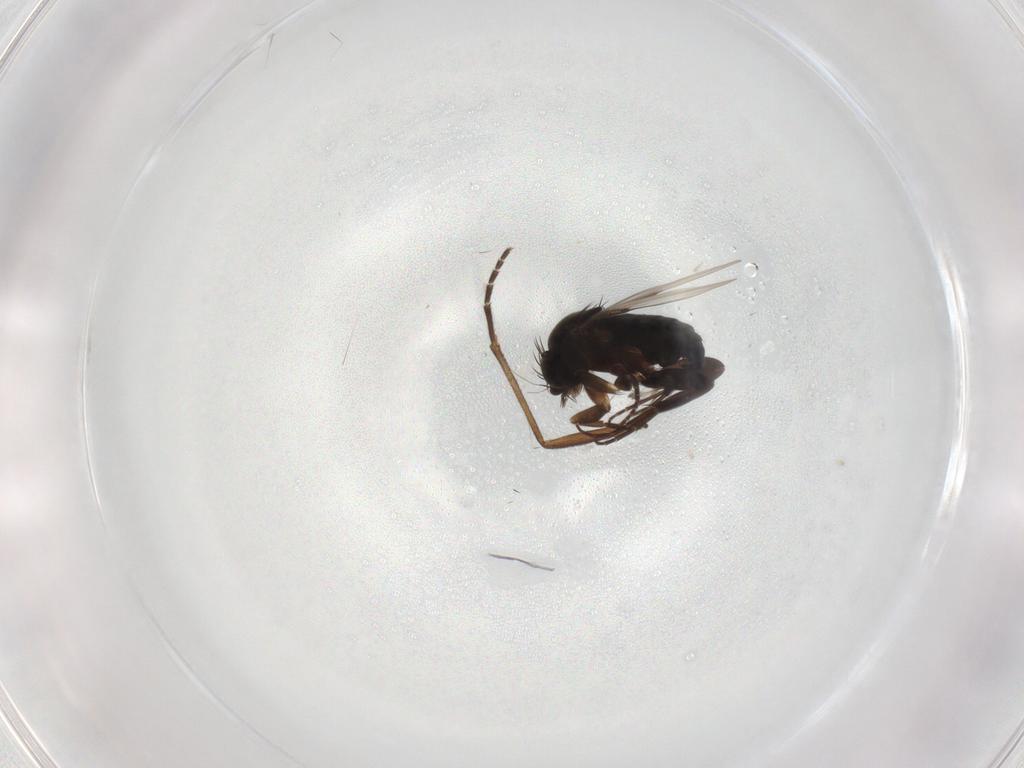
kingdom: Animalia
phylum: Arthropoda
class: Insecta
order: Diptera
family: Phoridae
